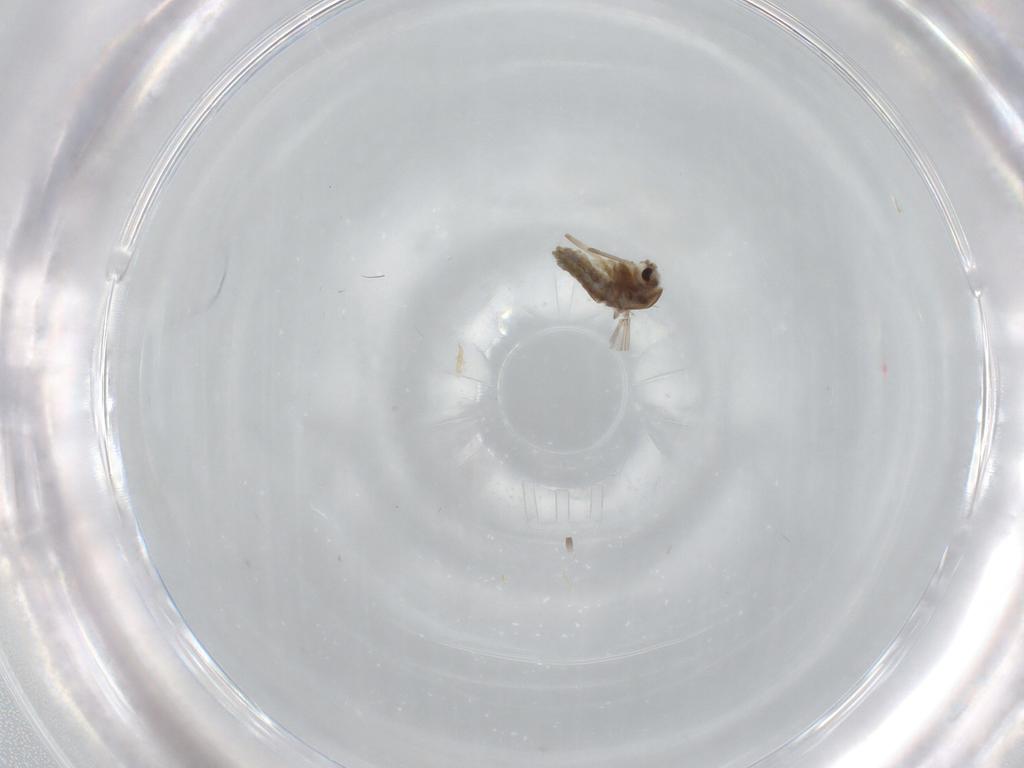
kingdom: Animalia
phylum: Arthropoda
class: Insecta
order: Diptera
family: Chironomidae
